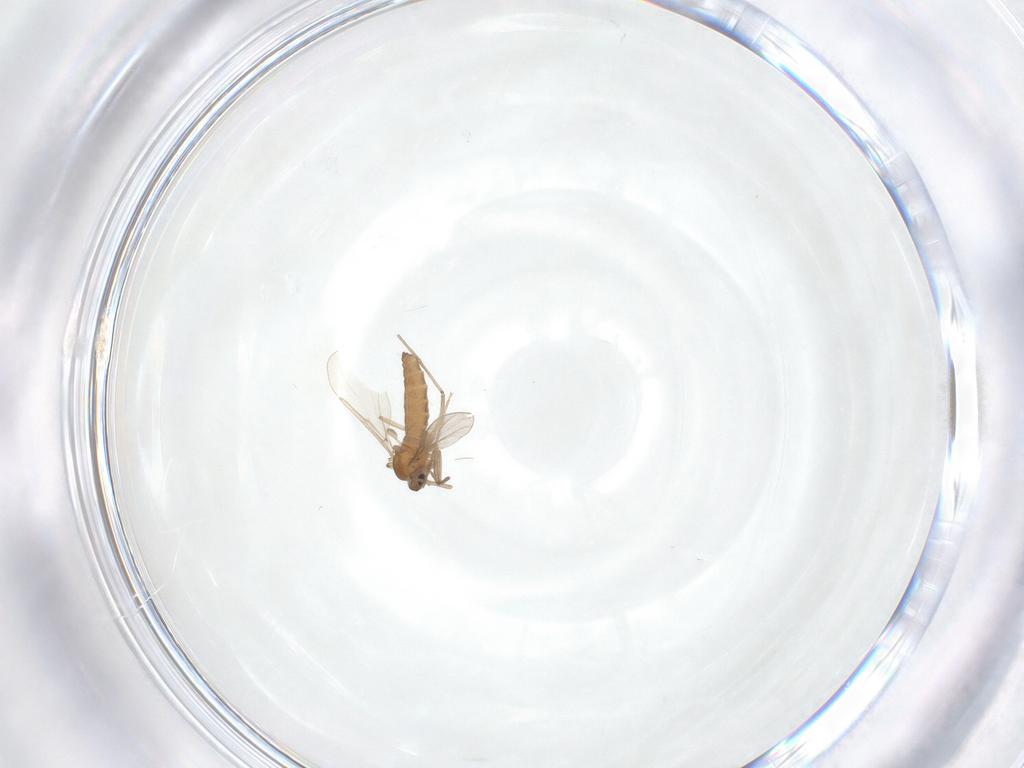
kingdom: Animalia
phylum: Arthropoda
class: Insecta
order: Diptera
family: Cecidomyiidae
